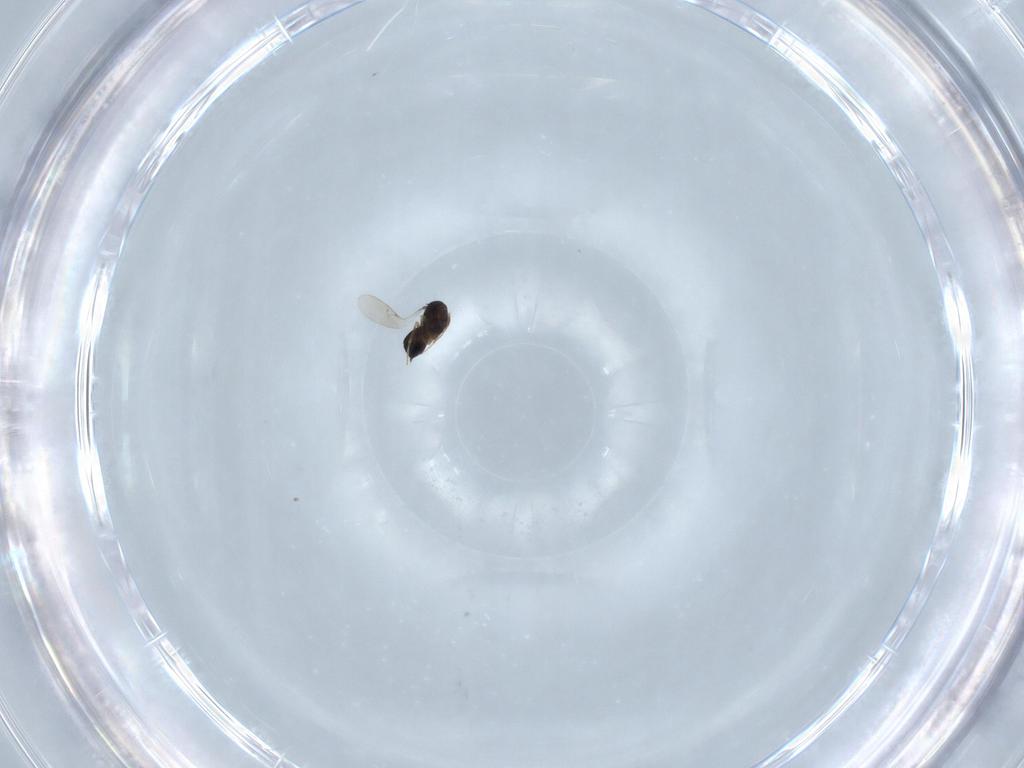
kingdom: Animalia
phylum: Arthropoda
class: Insecta
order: Hymenoptera
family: Scelionidae
